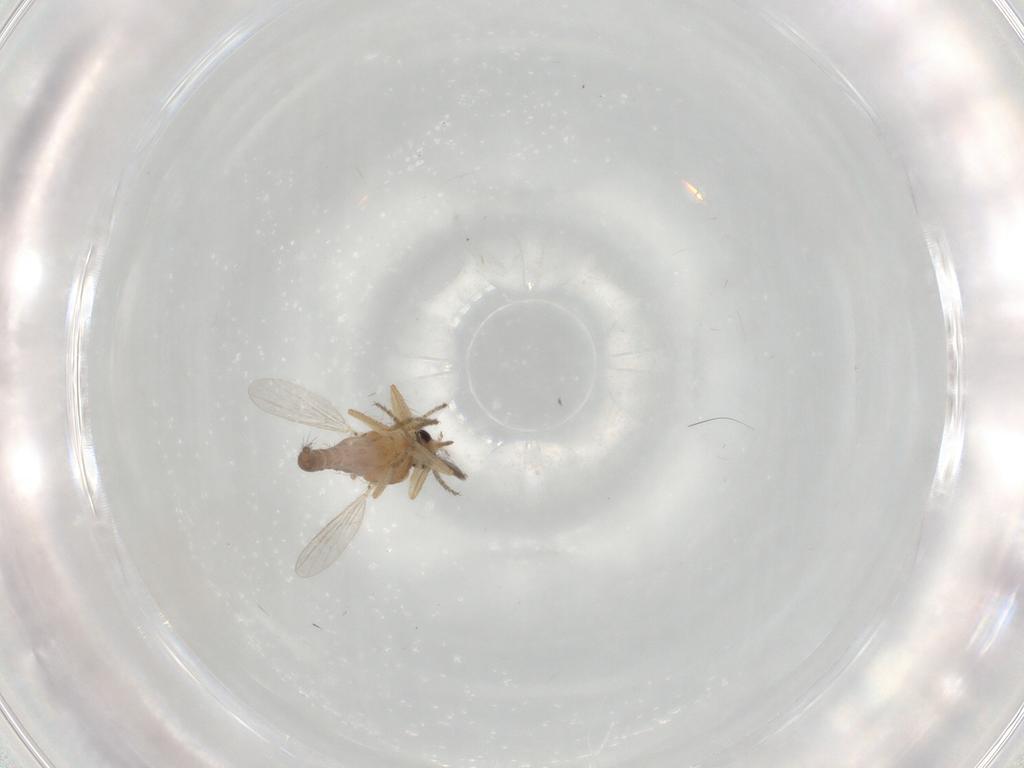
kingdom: Animalia
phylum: Arthropoda
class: Insecta
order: Diptera
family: Ceratopogonidae
